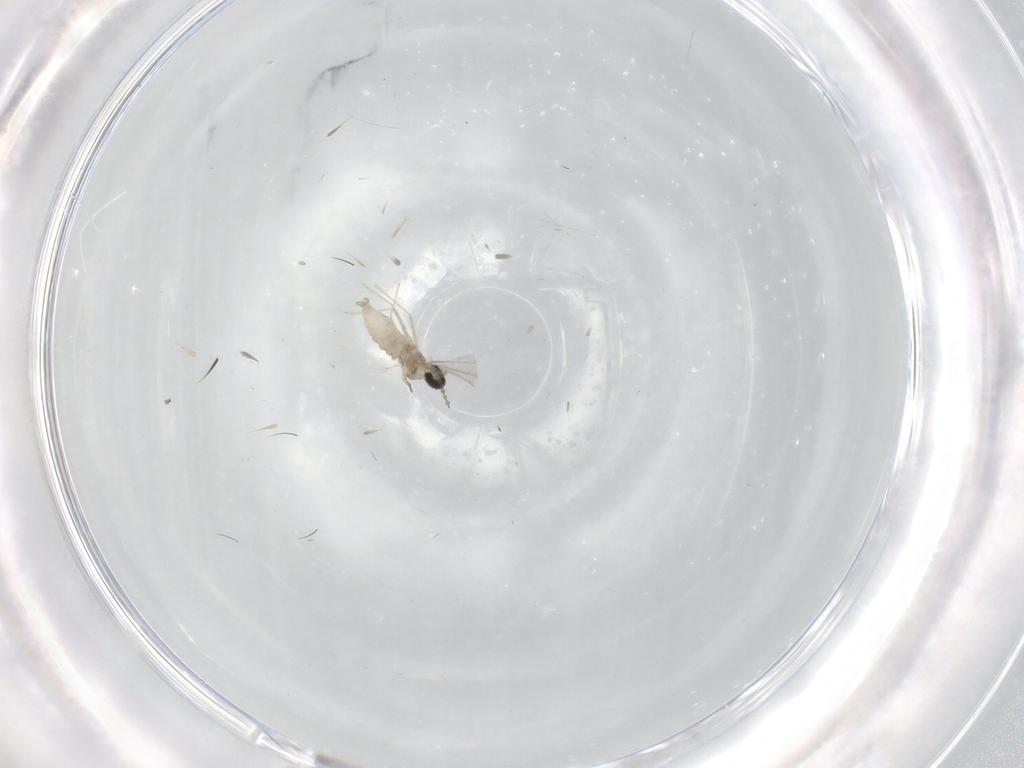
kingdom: Animalia
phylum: Arthropoda
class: Insecta
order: Diptera
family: Cecidomyiidae
